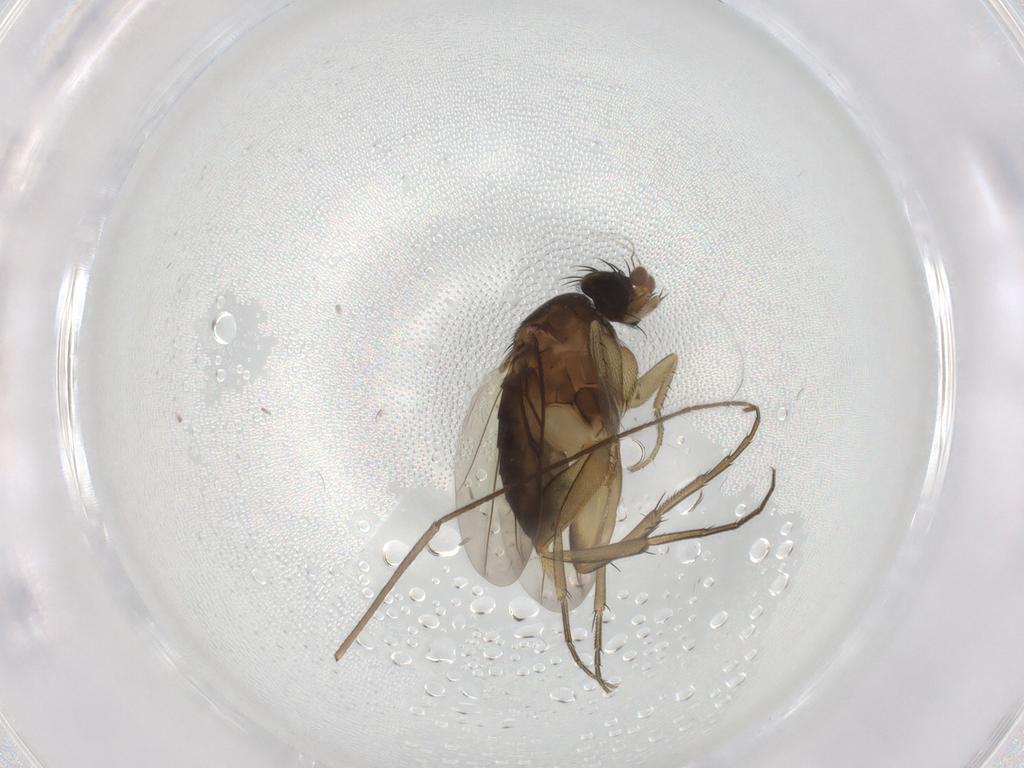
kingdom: Animalia
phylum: Arthropoda
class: Insecta
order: Diptera
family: Phoridae
